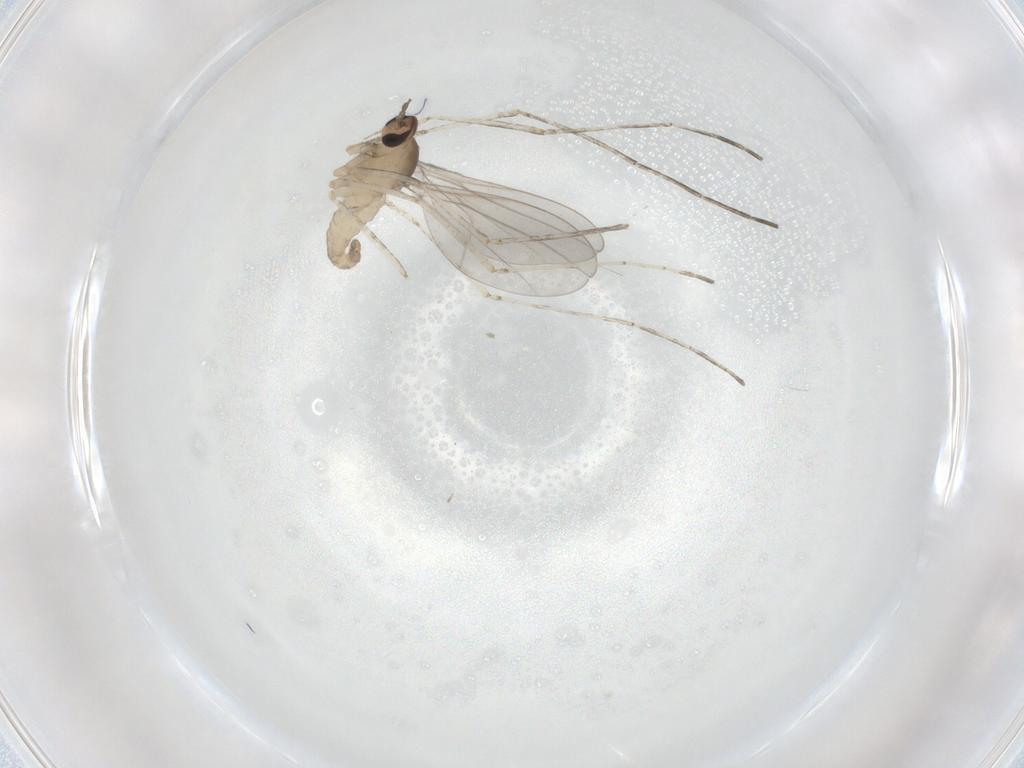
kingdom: Animalia
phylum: Arthropoda
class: Insecta
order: Diptera
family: Cecidomyiidae
